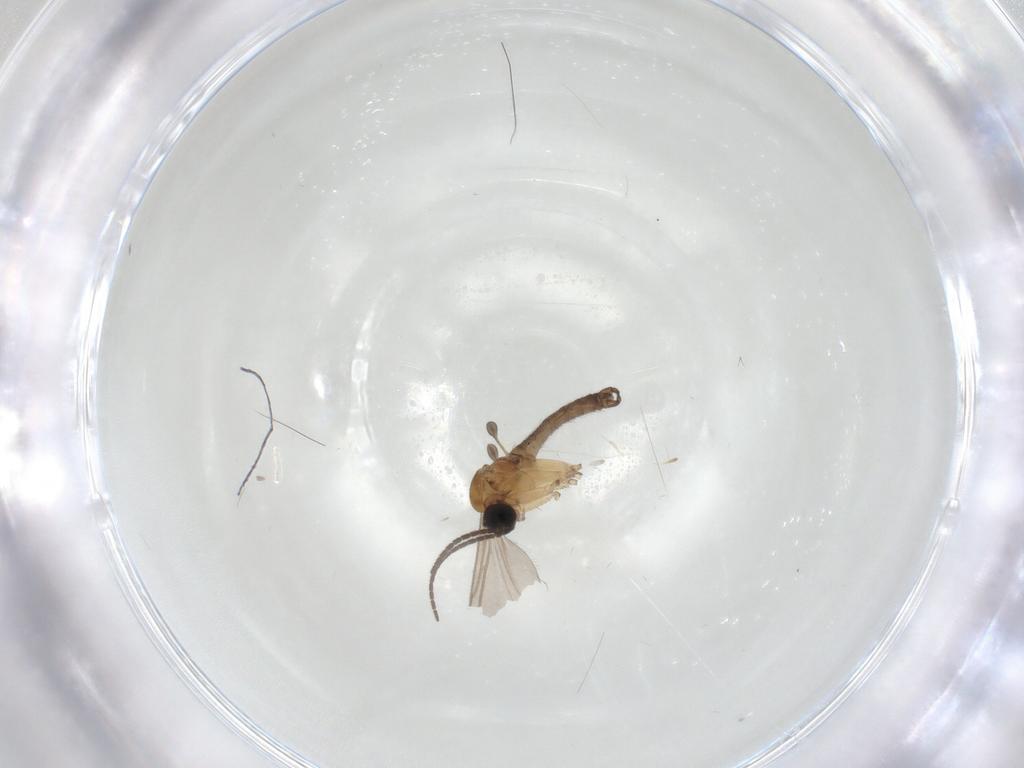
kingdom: Animalia
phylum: Arthropoda
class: Insecta
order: Diptera
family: Sciaridae
